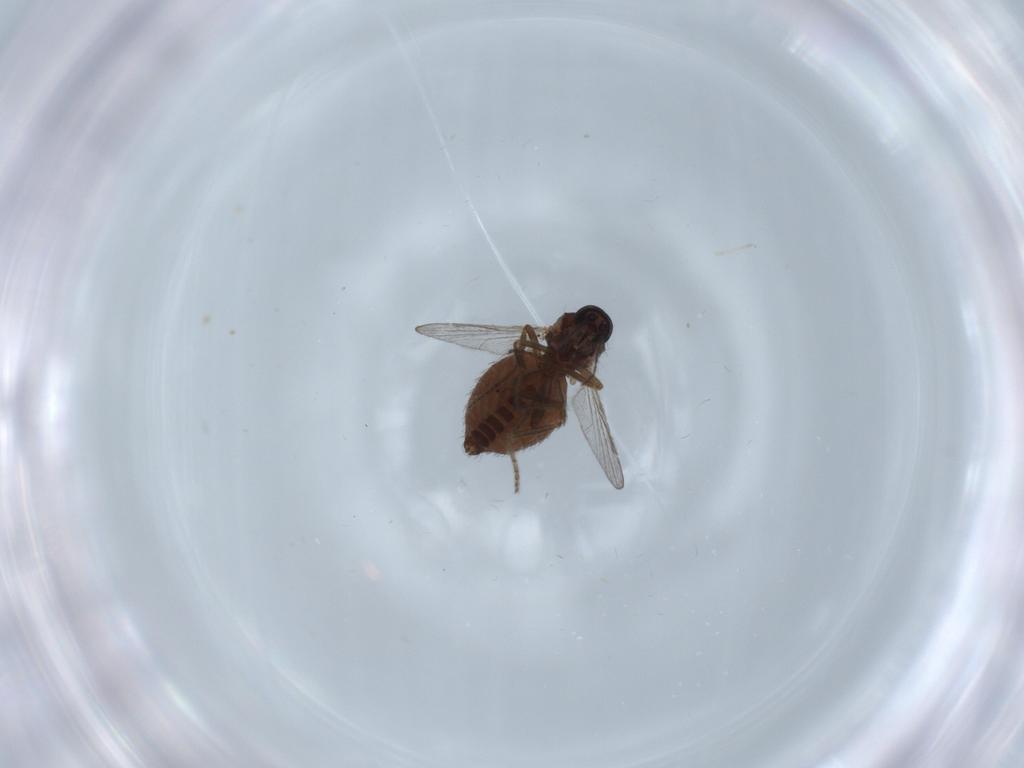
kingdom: Animalia
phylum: Arthropoda
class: Insecta
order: Diptera
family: Ceratopogonidae
